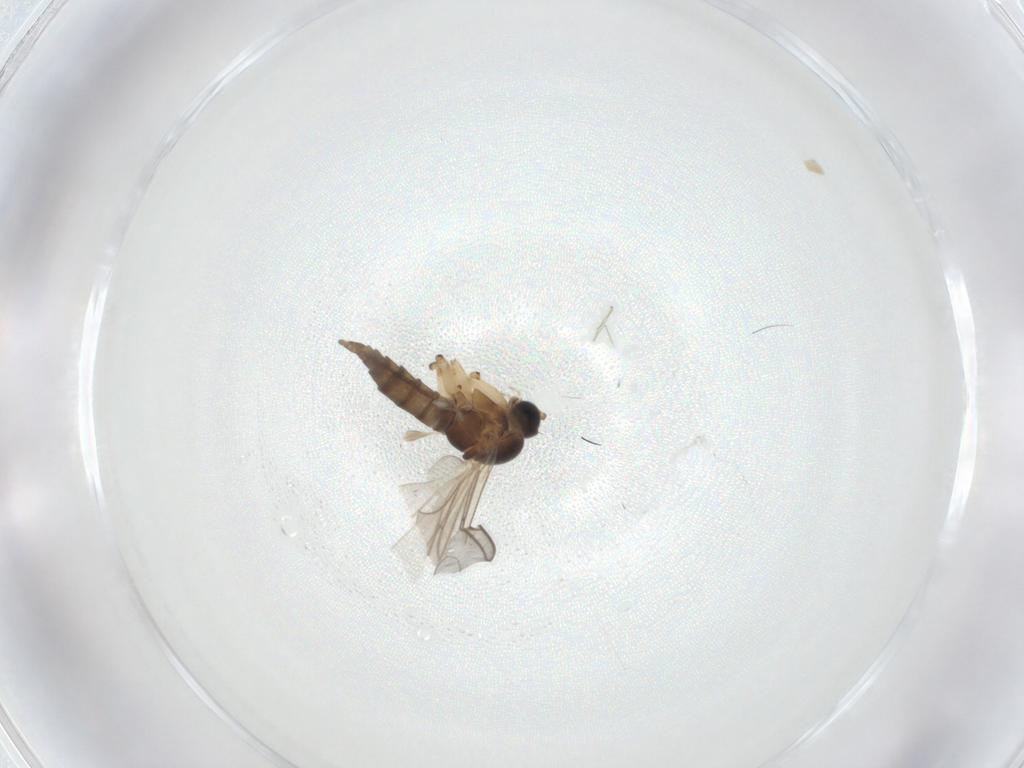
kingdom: Animalia
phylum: Arthropoda
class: Insecta
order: Diptera
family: Sciaridae
